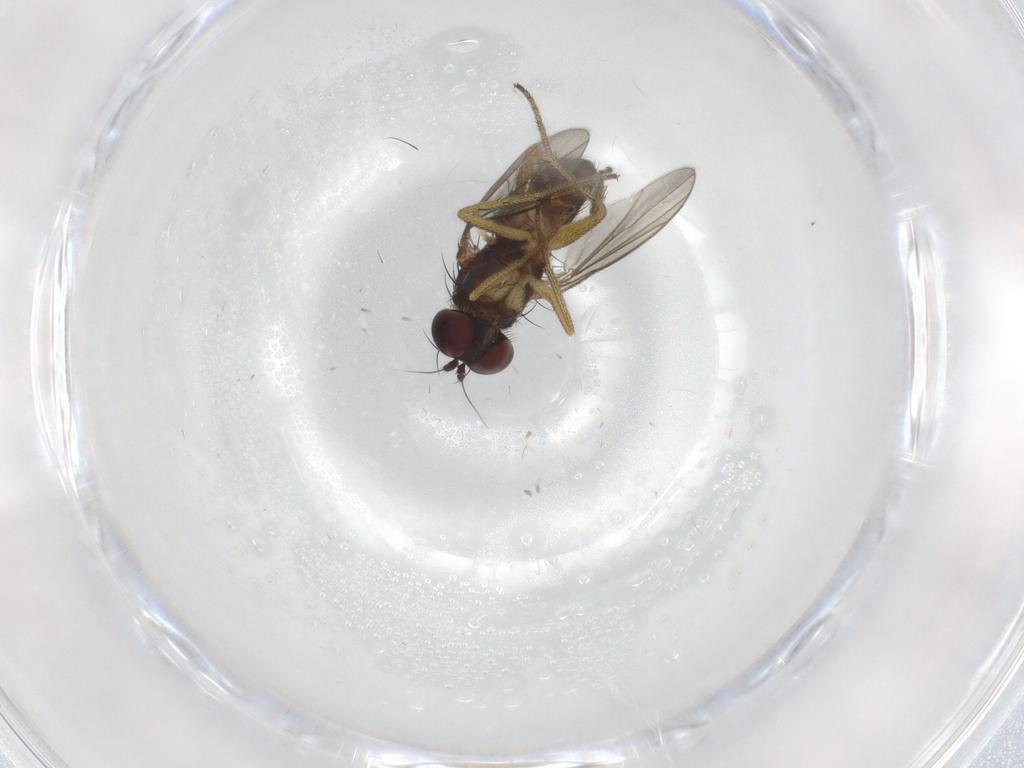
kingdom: Animalia
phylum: Arthropoda
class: Insecta
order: Diptera
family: Dolichopodidae
